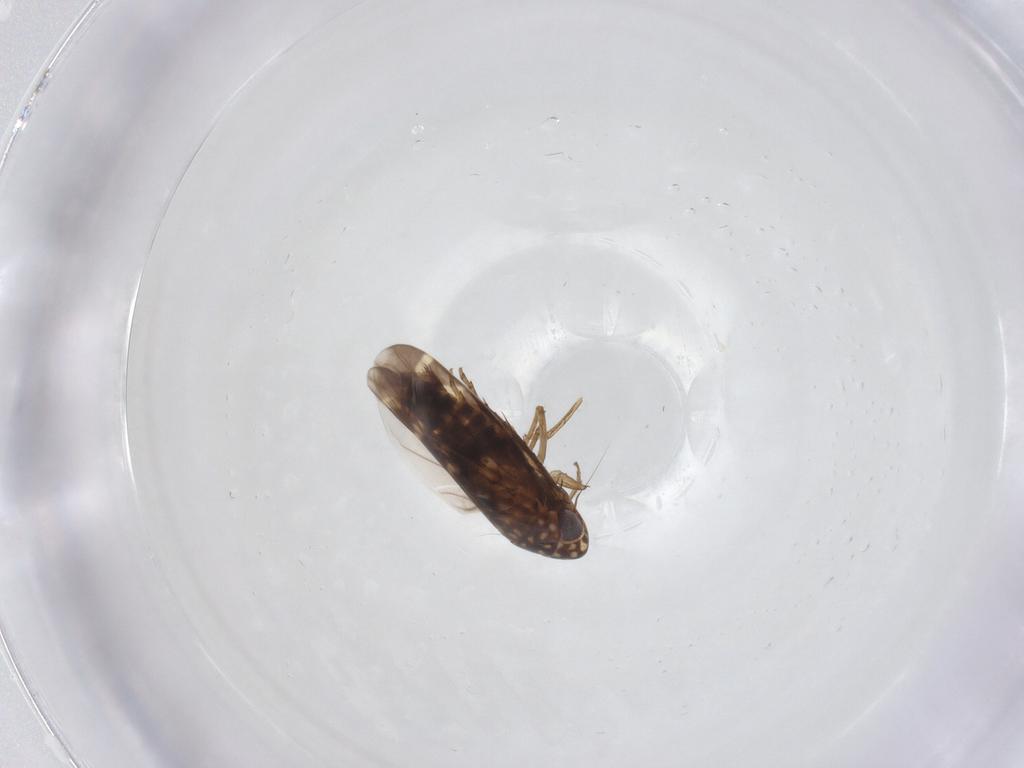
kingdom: Animalia
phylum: Arthropoda
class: Insecta
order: Hemiptera
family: Cicadellidae
